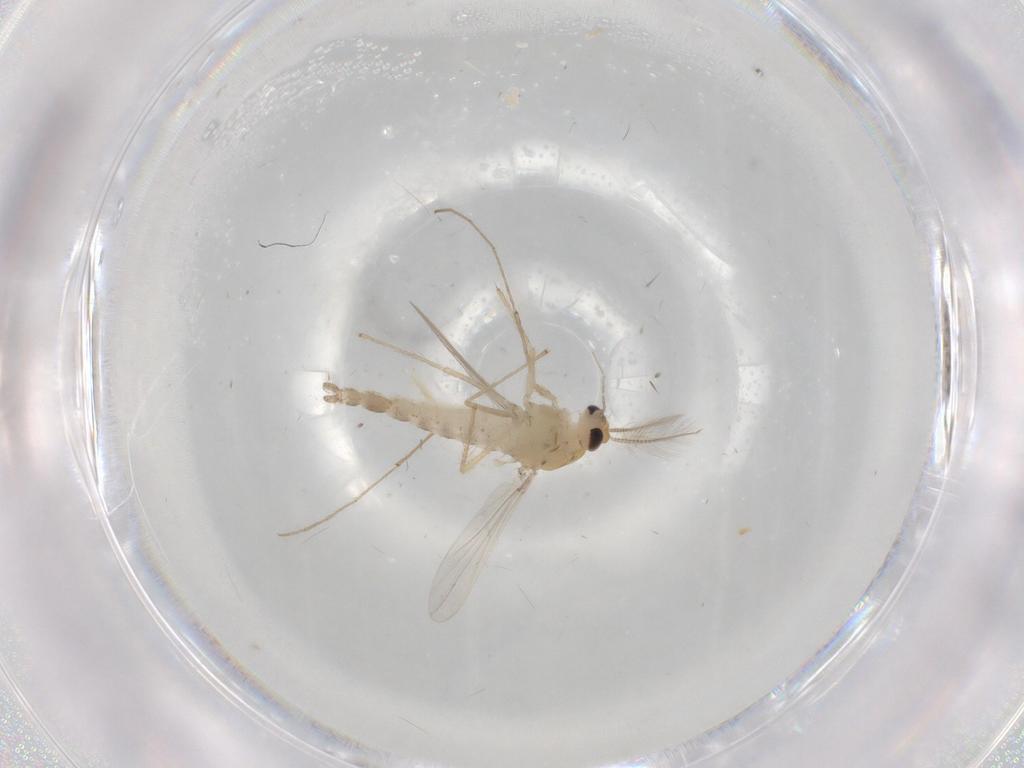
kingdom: Animalia
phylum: Arthropoda
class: Insecta
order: Diptera
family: Chironomidae
